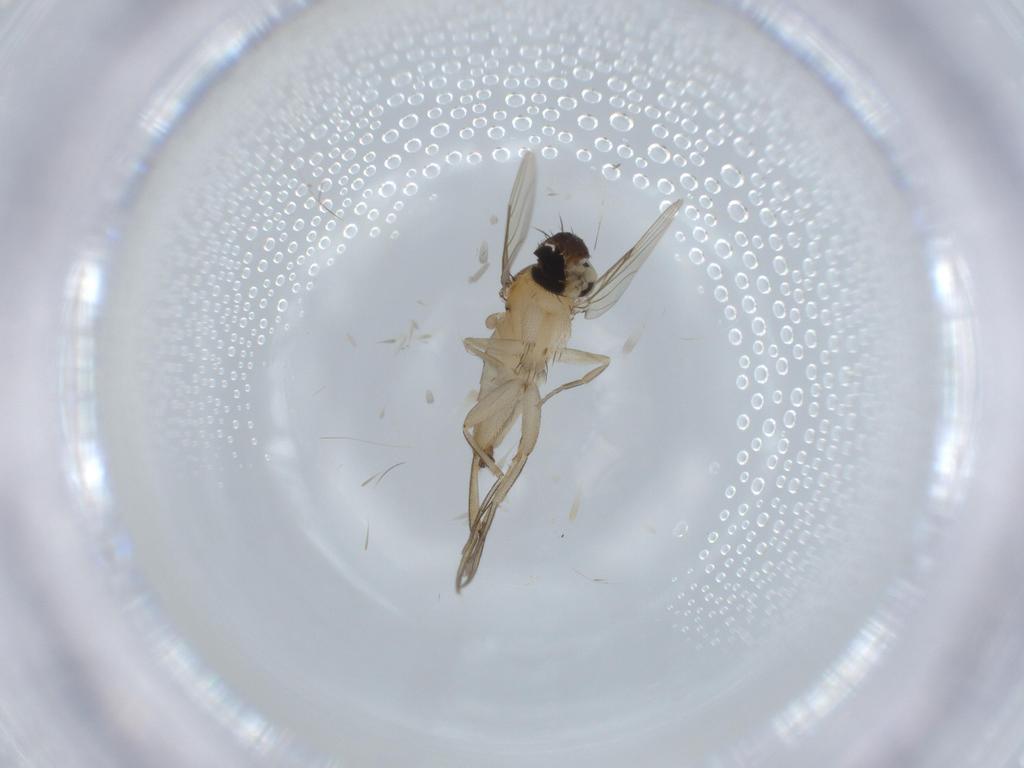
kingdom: Animalia
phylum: Arthropoda
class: Insecta
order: Diptera
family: Phoridae
